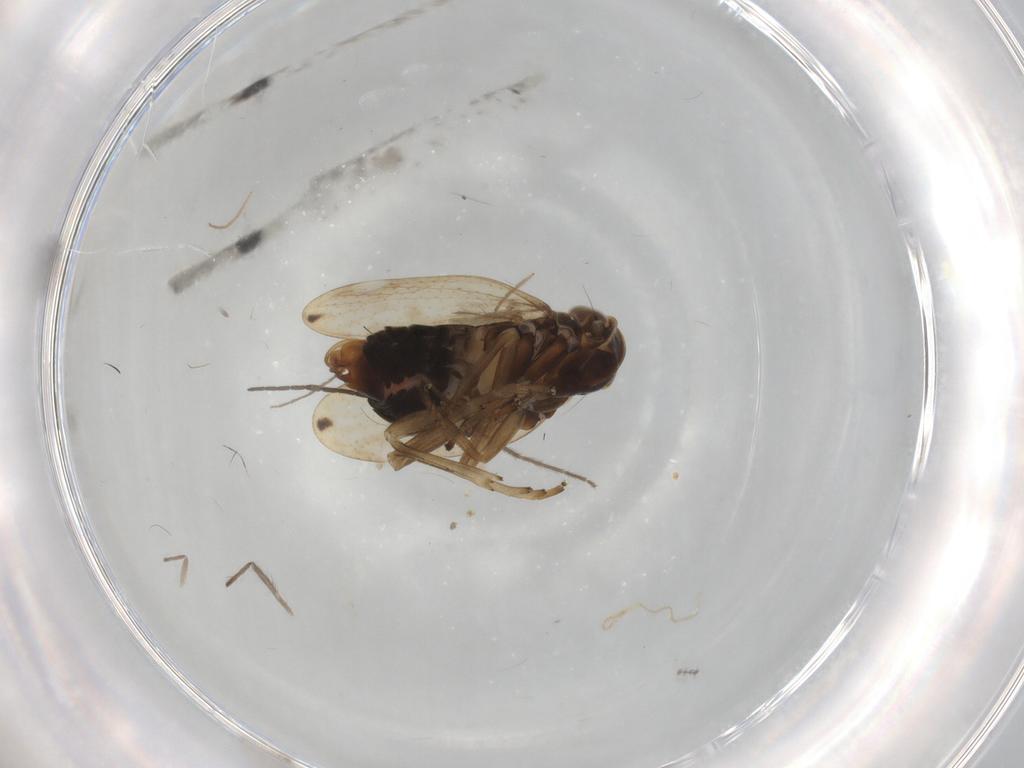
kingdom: Animalia
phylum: Arthropoda
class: Insecta
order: Hemiptera
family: Cixiidae
